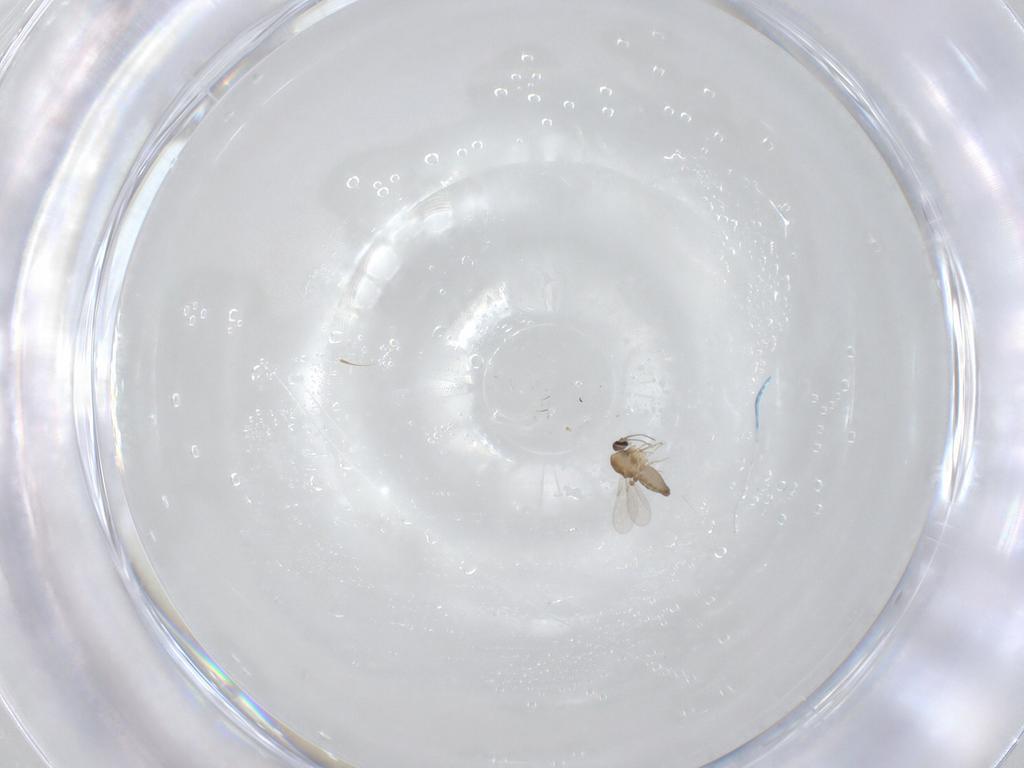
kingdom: Animalia
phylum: Arthropoda
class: Insecta
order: Diptera
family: Ceratopogonidae
